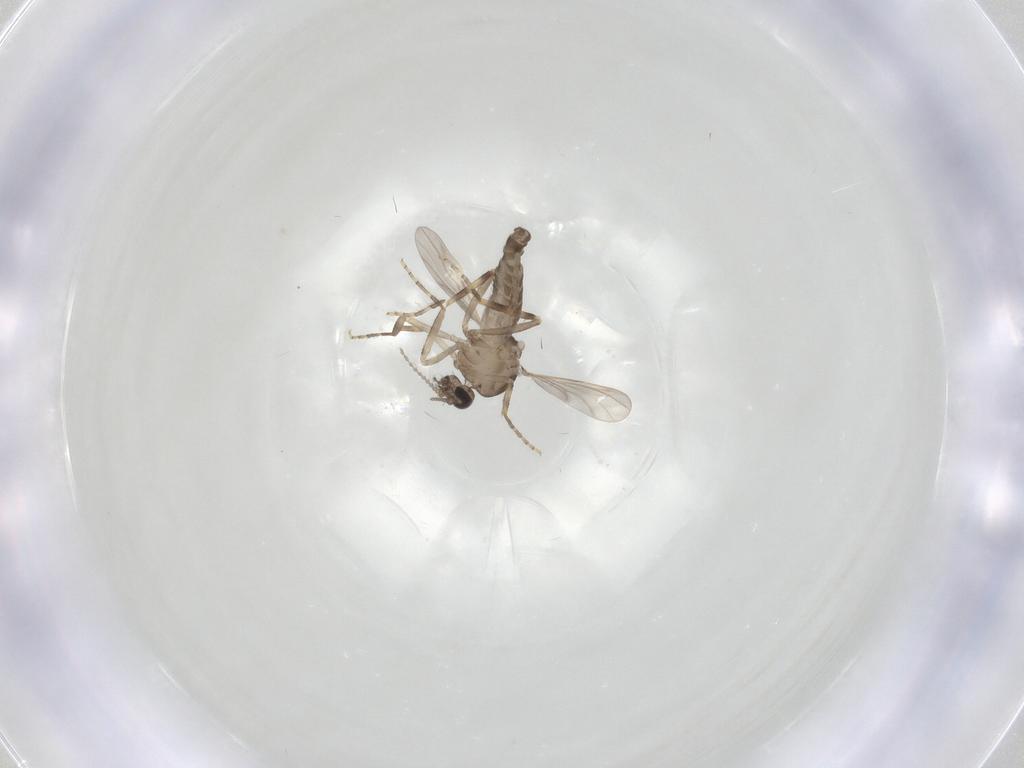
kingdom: Animalia
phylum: Arthropoda
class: Insecta
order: Diptera
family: Ceratopogonidae
